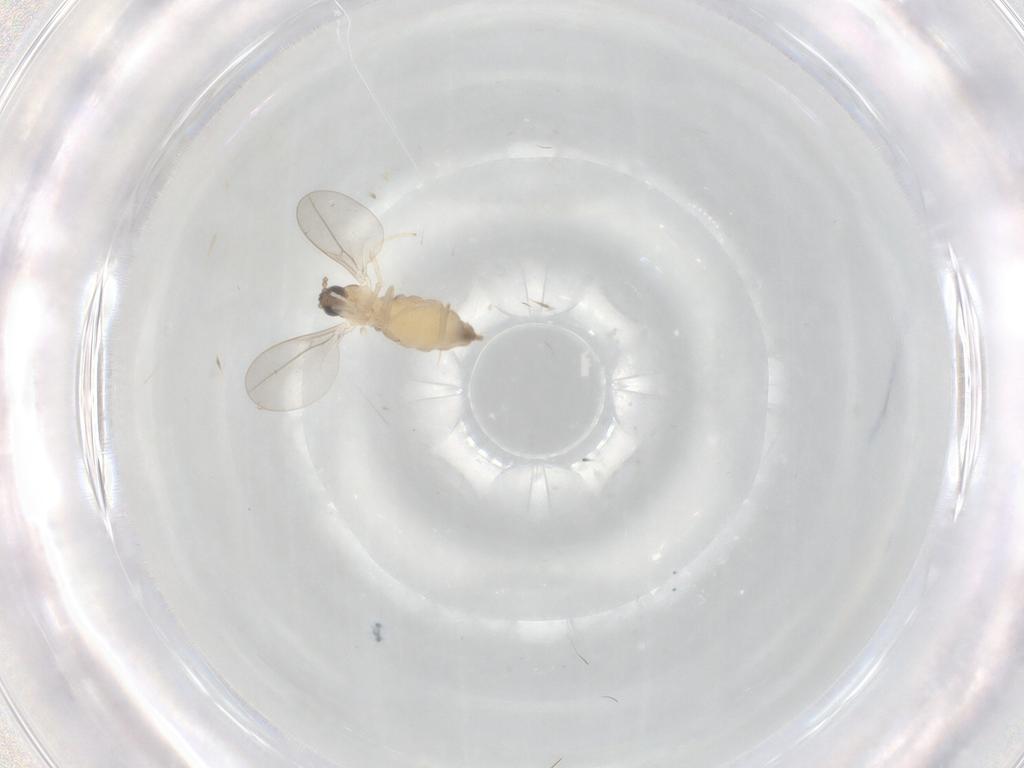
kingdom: Animalia
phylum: Arthropoda
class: Insecta
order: Diptera
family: Cecidomyiidae
